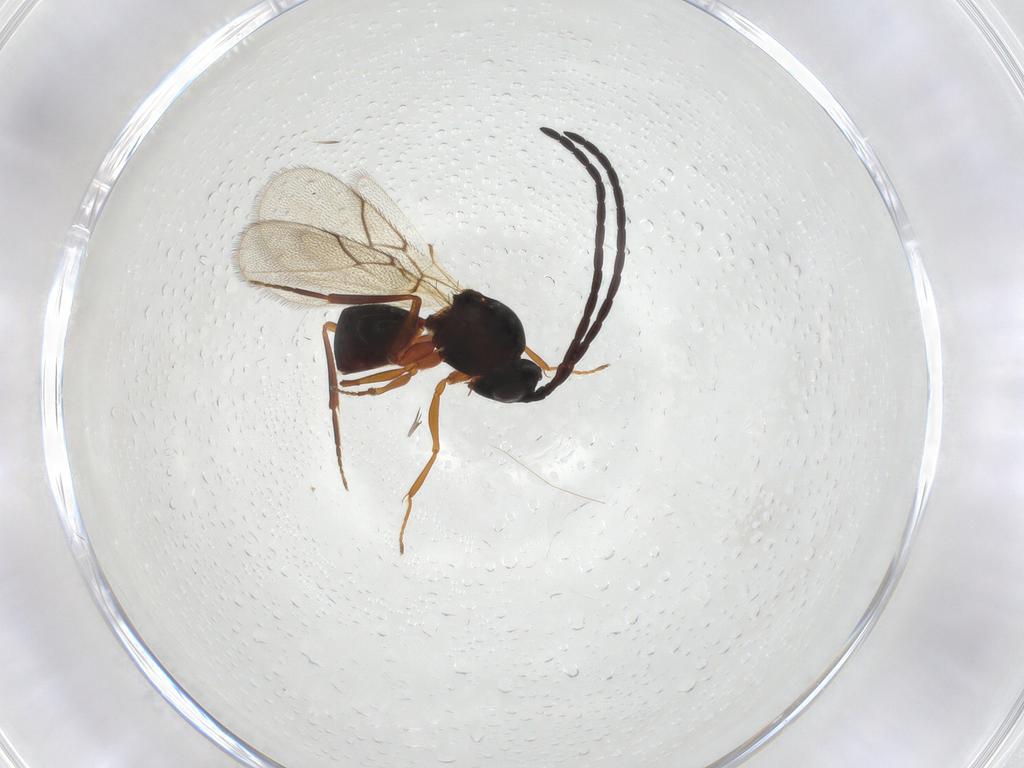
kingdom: Animalia
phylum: Arthropoda
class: Insecta
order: Hymenoptera
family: Figitidae
